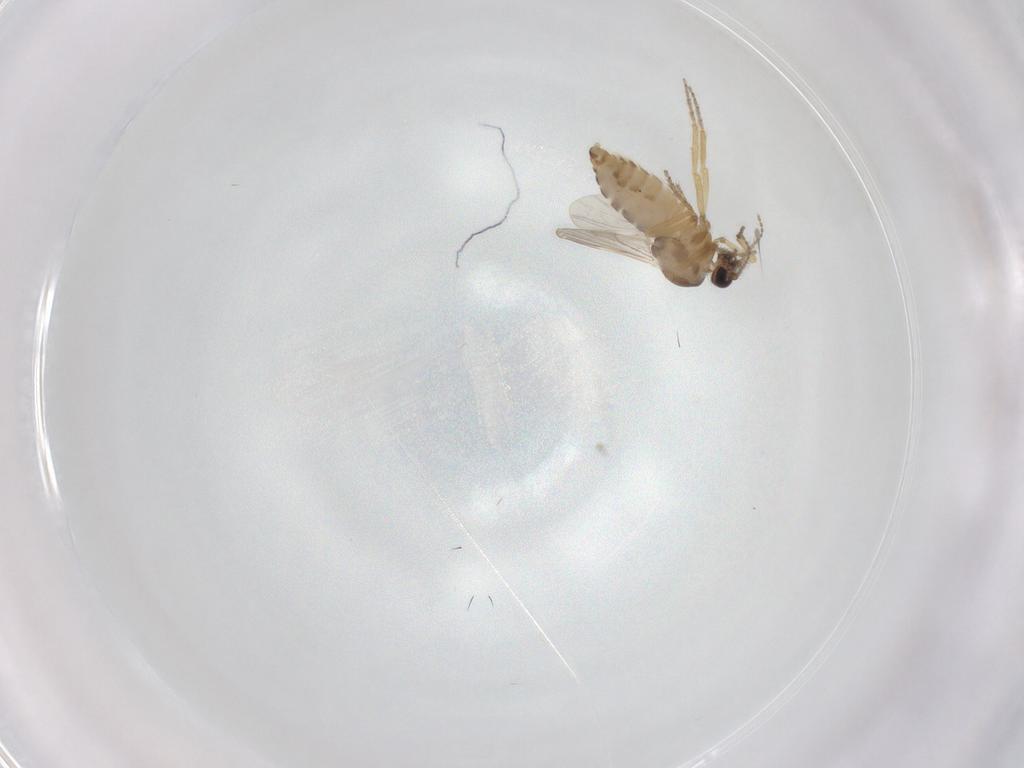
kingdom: Animalia
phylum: Arthropoda
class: Insecta
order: Diptera
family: Ceratopogonidae
